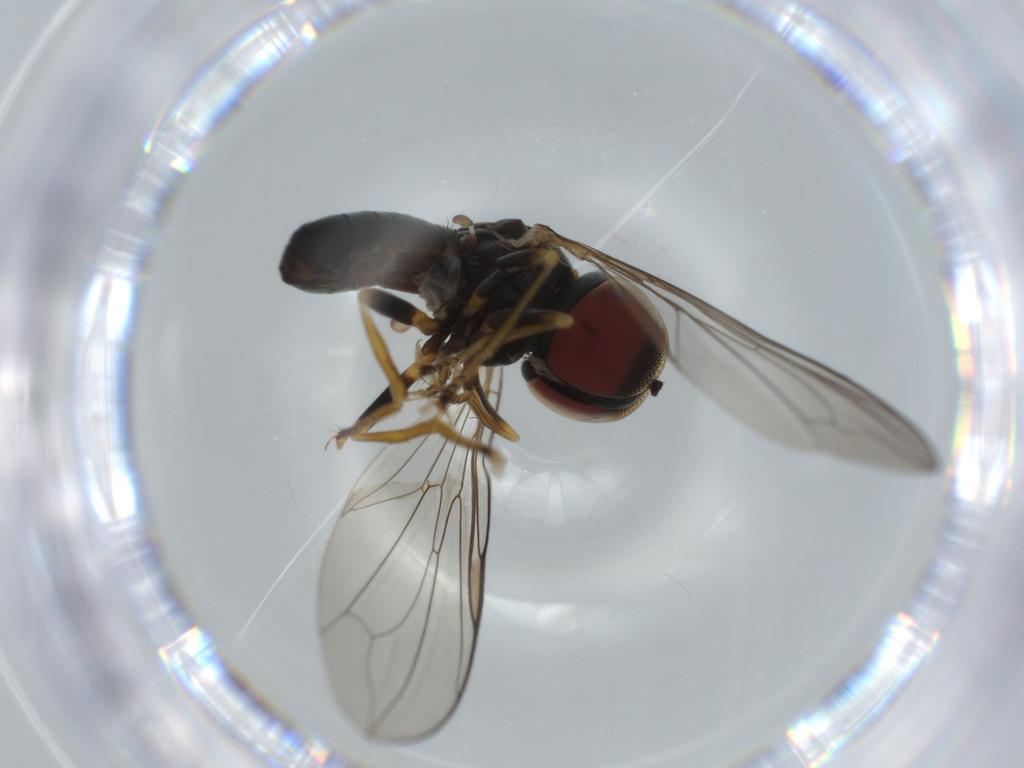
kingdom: Animalia
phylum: Arthropoda
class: Insecta
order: Diptera
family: Pipunculidae
